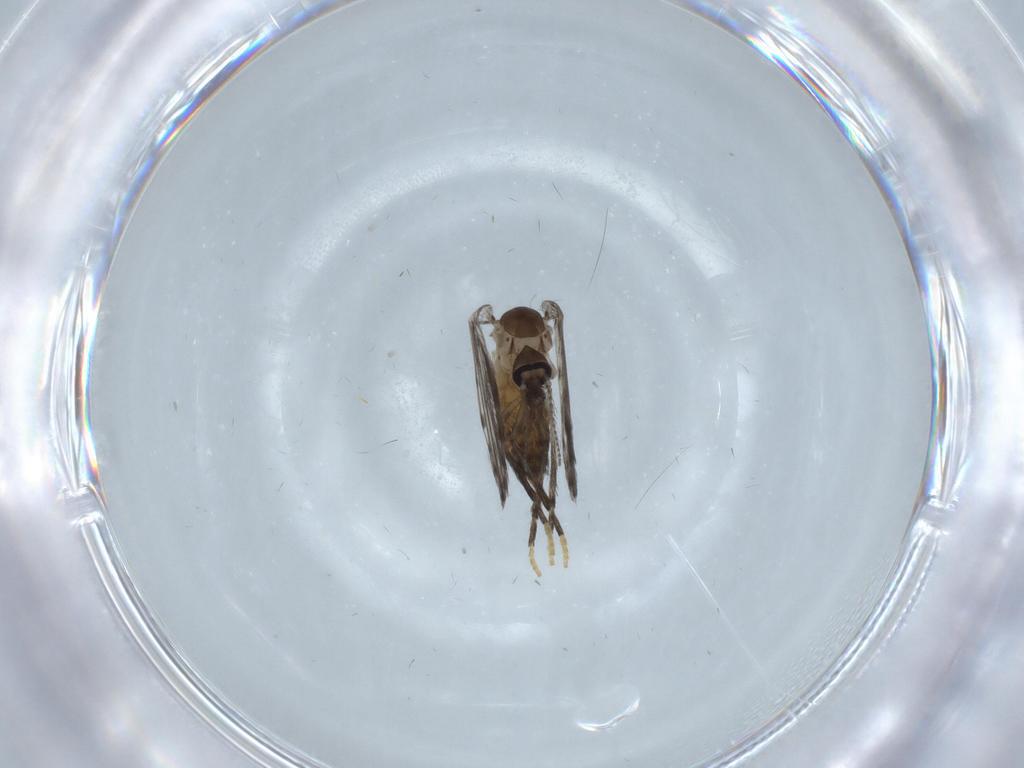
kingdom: Animalia
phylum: Arthropoda
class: Insecta
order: Diptera
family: Psychodidae
